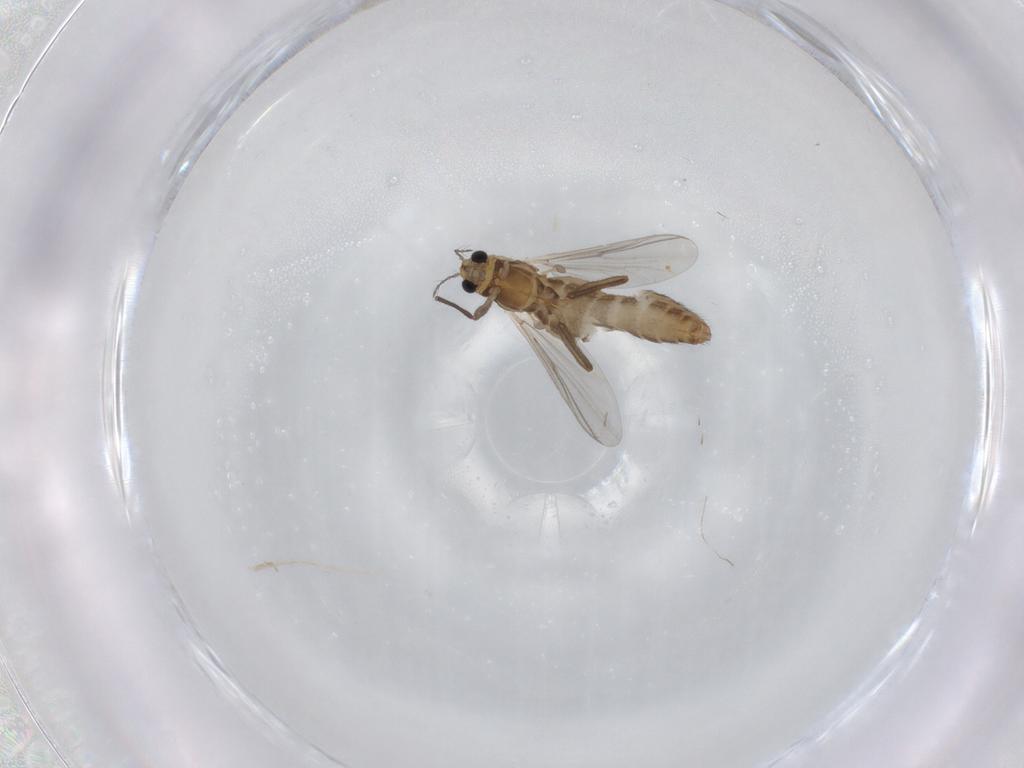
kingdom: Animalia
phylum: Arthropoda
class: Insecta
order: Diptera
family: Chironomidae
